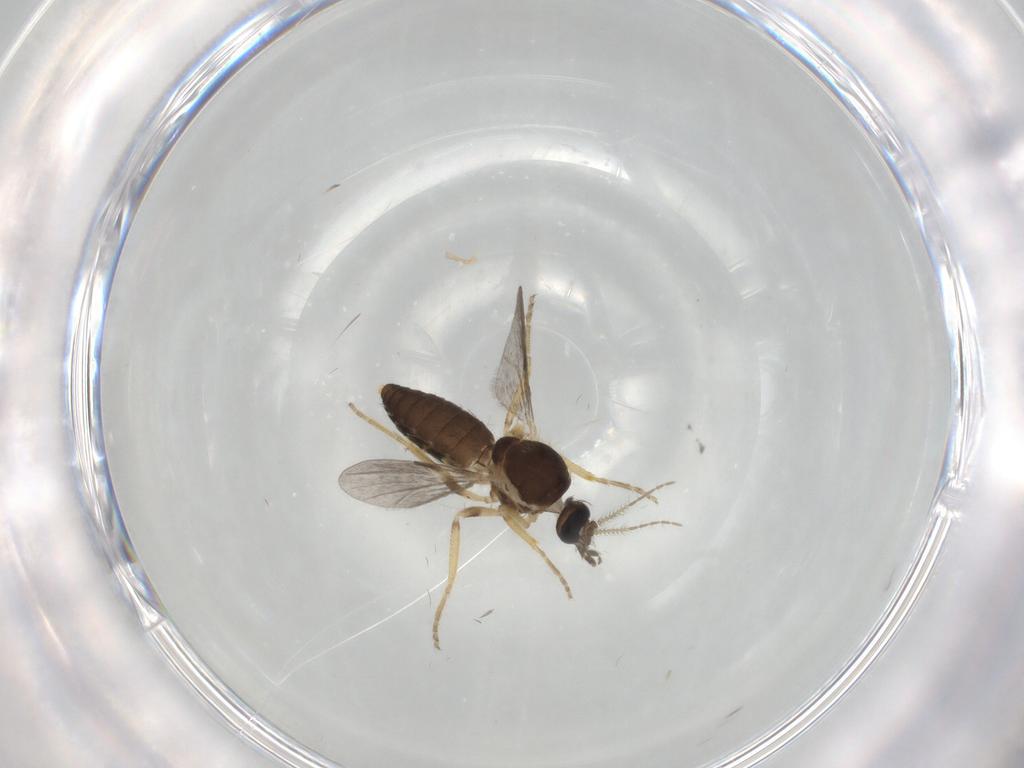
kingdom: Animalia
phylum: Arthropoda
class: Insecta
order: Diptera
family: Ceratopogonidae
